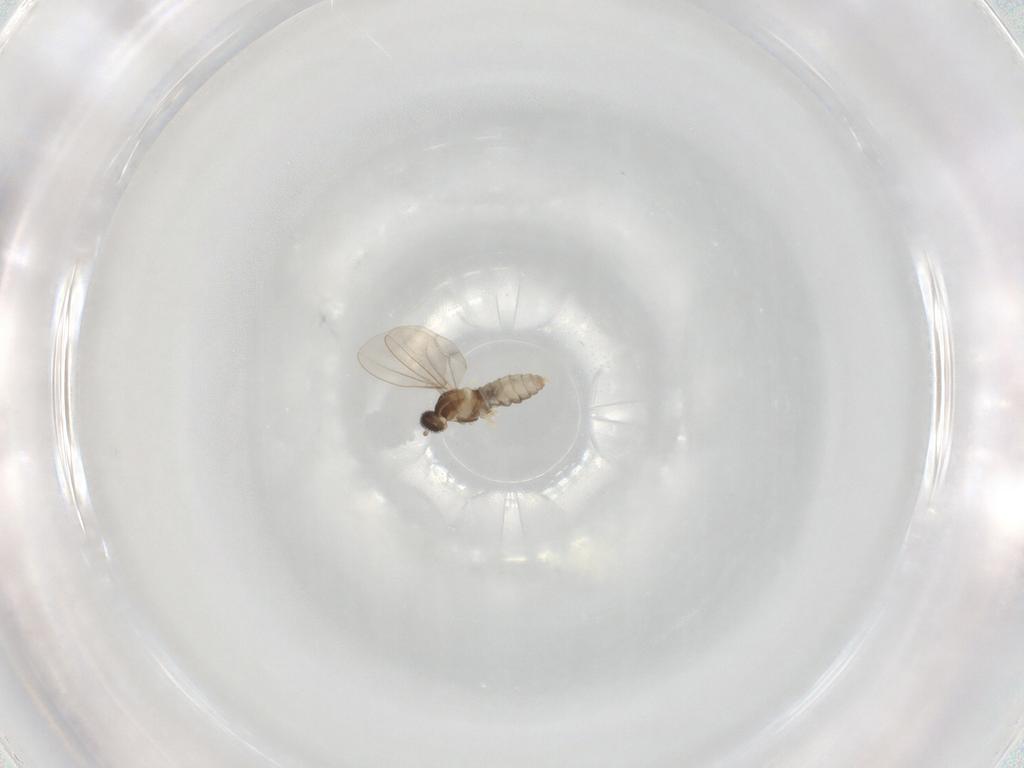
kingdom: Animalia
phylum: Arthropoda
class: Insecta
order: Diptera
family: Cecidomyiidae
